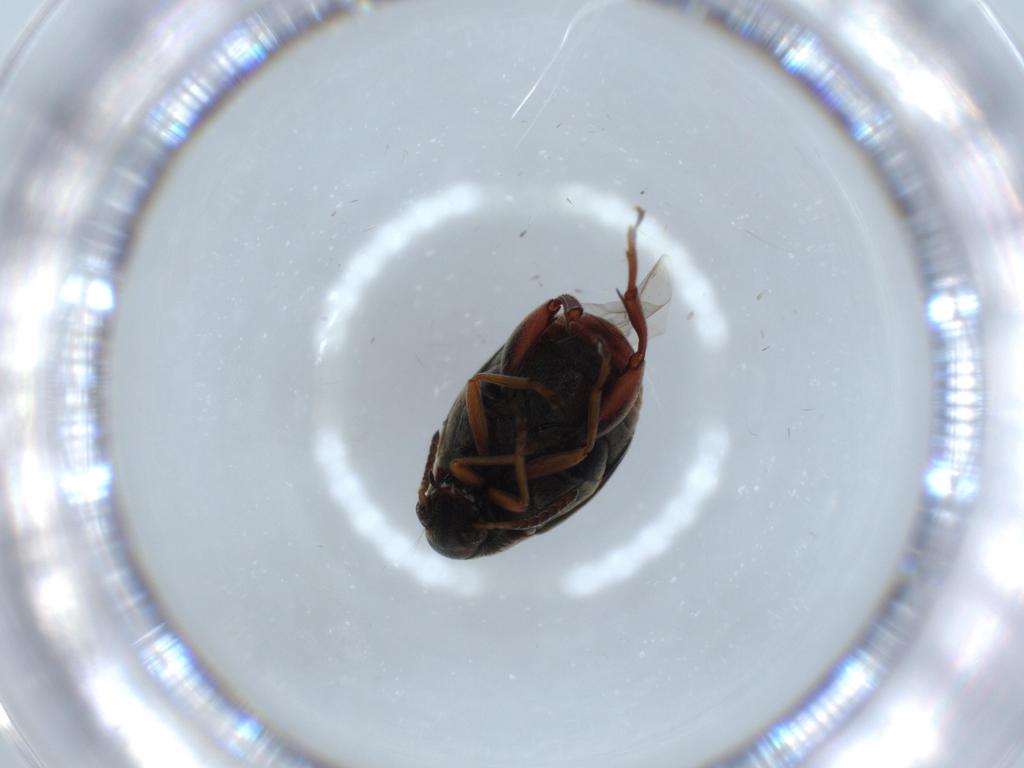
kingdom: Animalia
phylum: Arthropoda
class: Insecta
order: Coleoptera
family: Chrysomelidae
